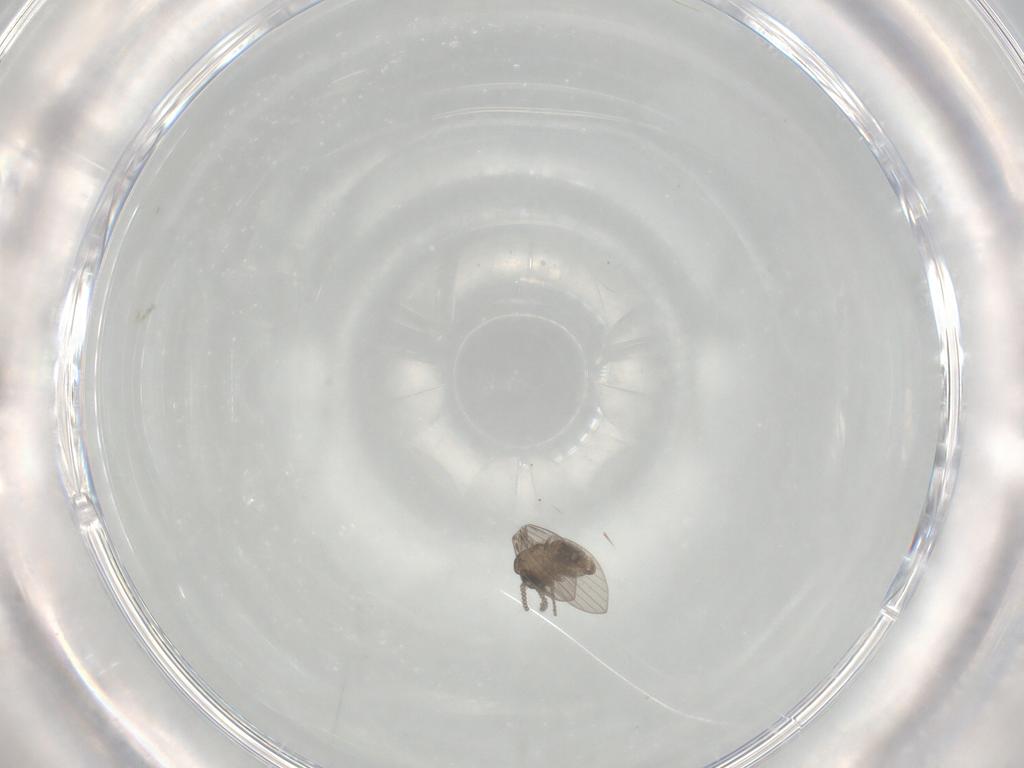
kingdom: Animalia
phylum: Arthropoda
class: Insecta
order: Diptera
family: Psychodidae
